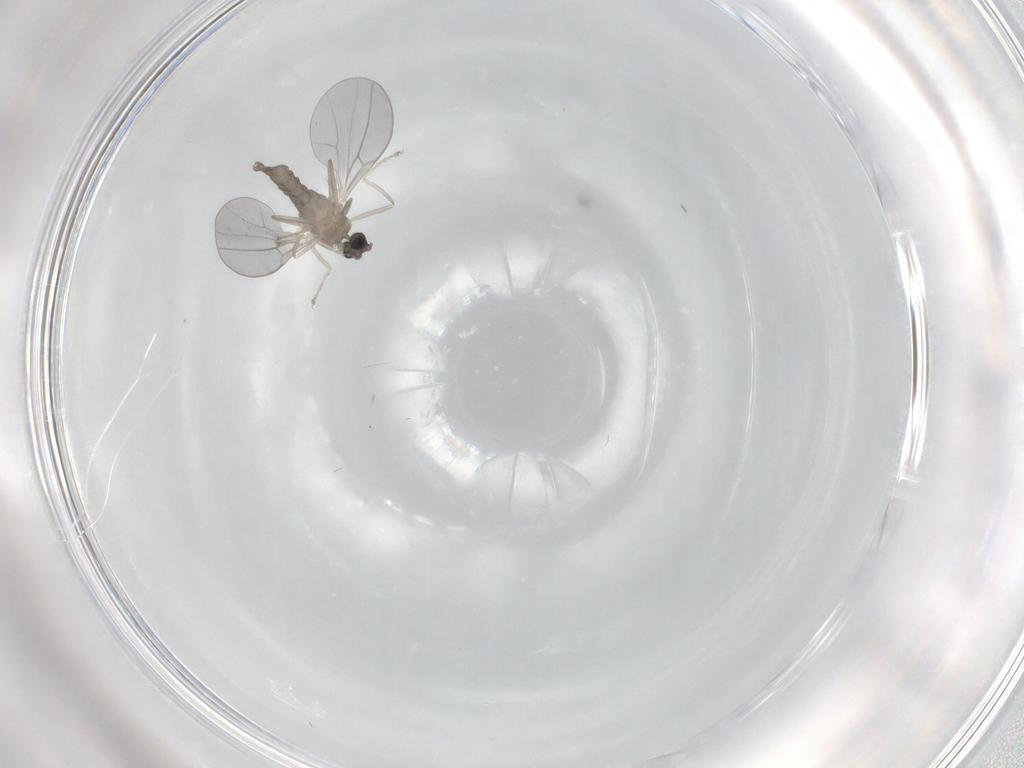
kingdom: Animalia
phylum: Arthropoda
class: Insecta
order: Diptera
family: Cecidomyiidae
